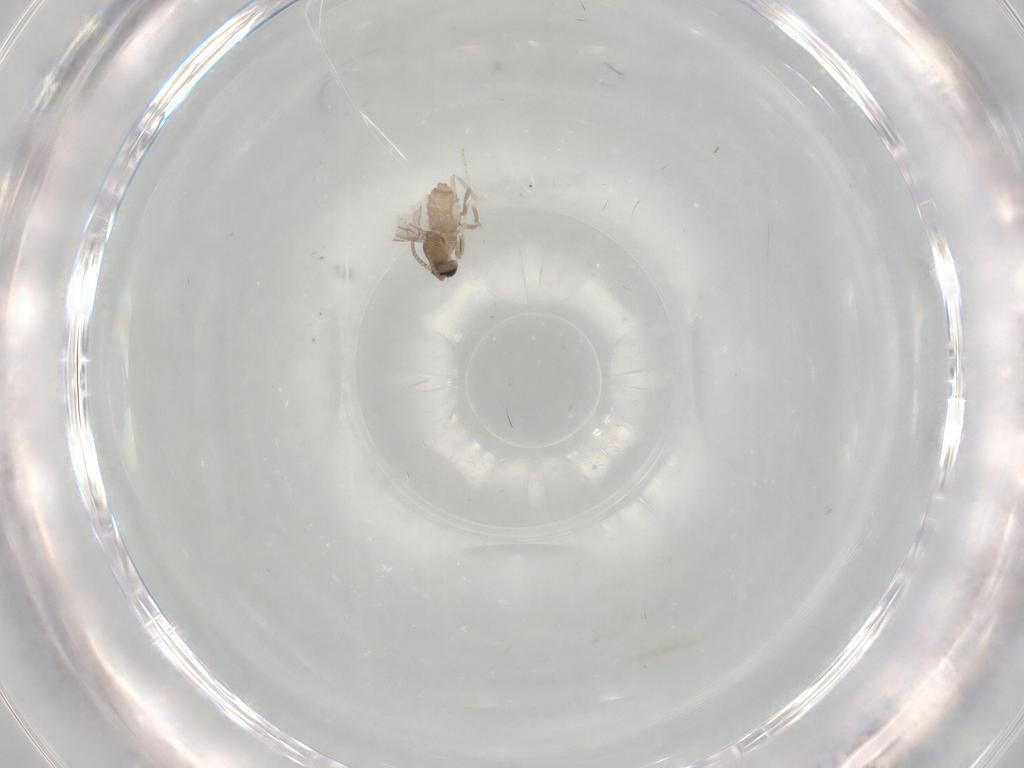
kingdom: Animalia
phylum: Arthropoda
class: Insecta
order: Diptera
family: Cecidomyiidae
